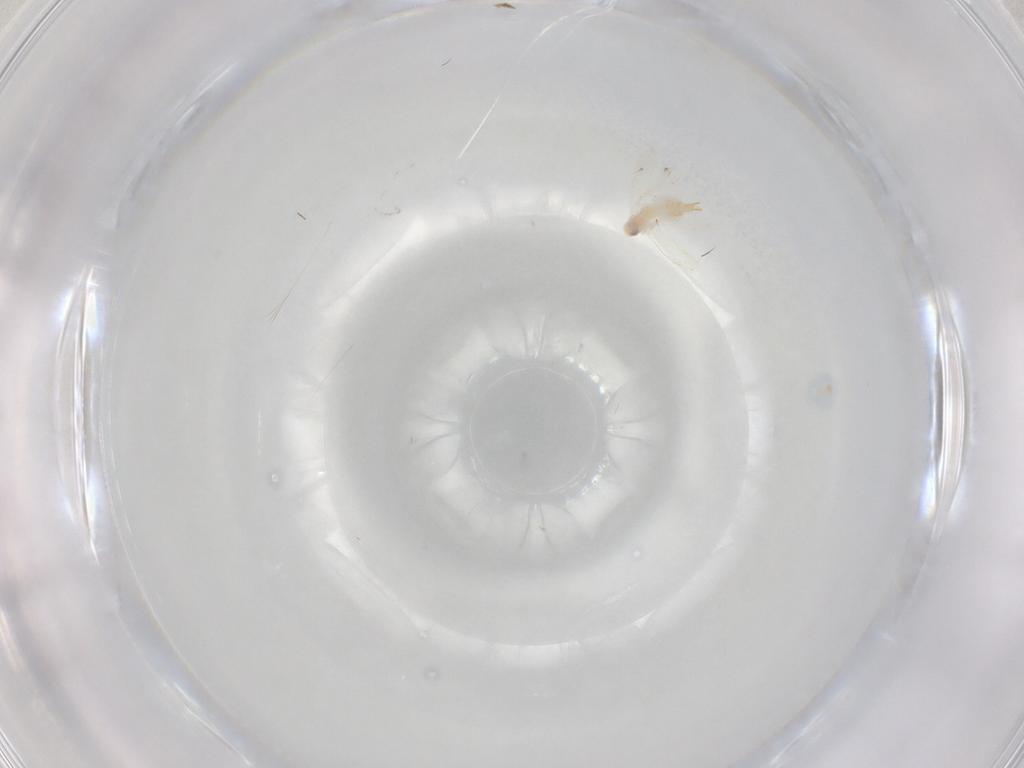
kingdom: Animalia
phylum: Arthropoda
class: Insecta
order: Hemiptera
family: Aleyrodidae
